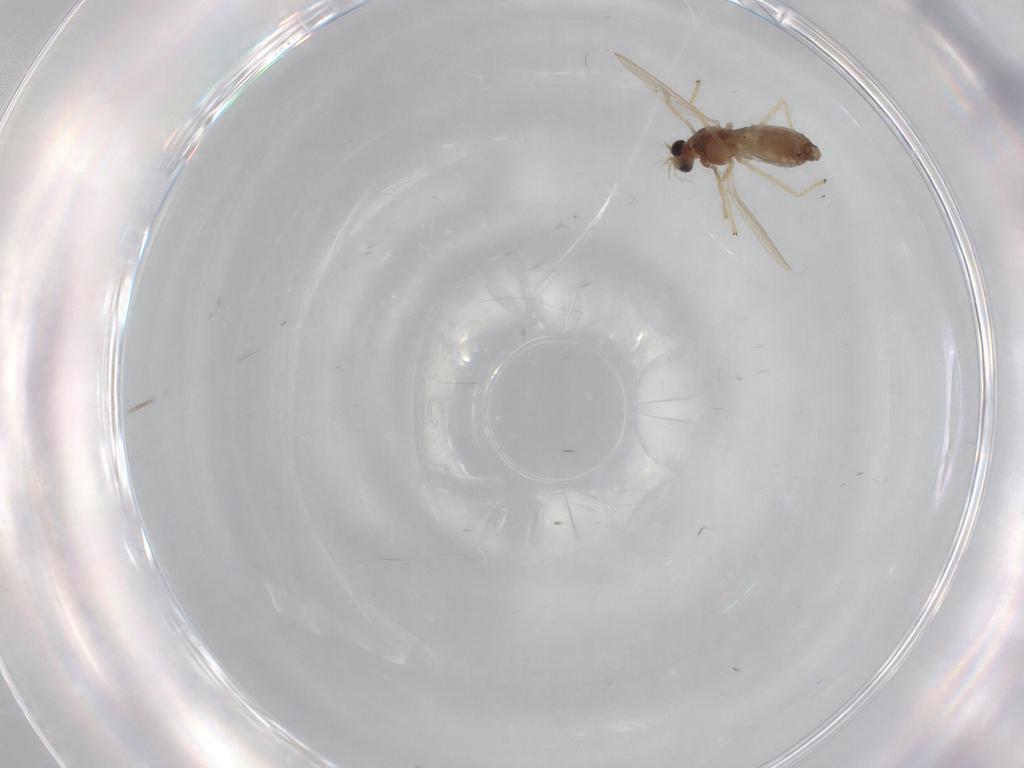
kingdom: Animalia
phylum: Arthropoda
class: Insecta
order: Diptera
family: Chironomidae
